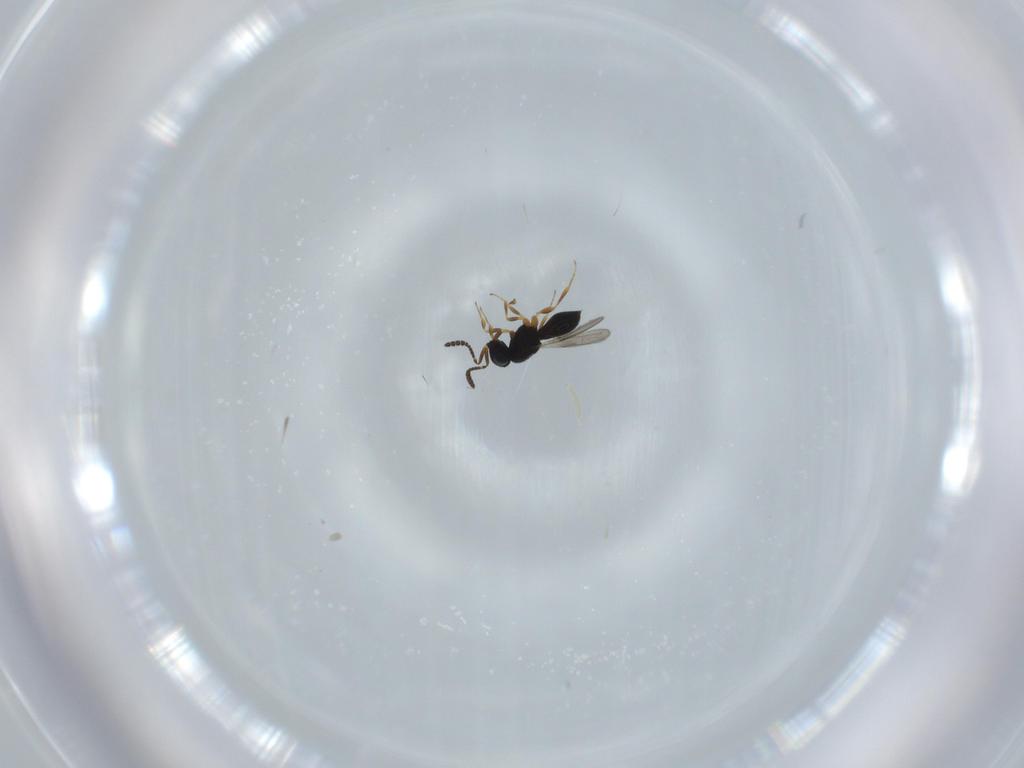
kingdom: Animalia
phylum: Arthropoda
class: Insecta
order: Hymenoptera
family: Scelionidae
